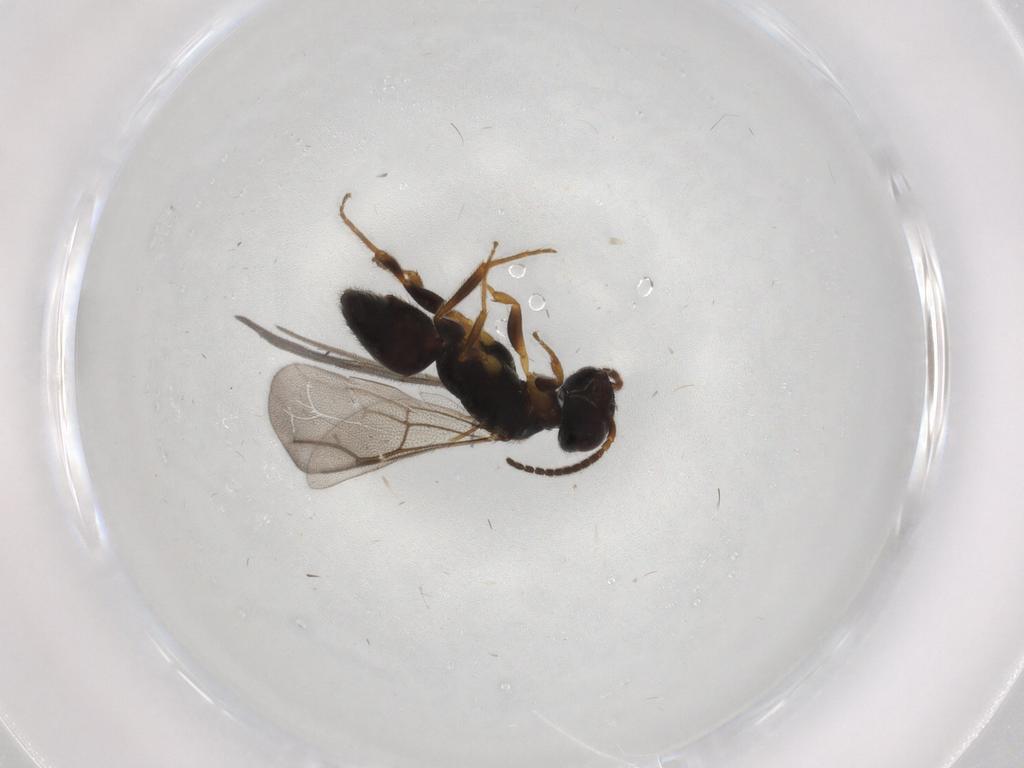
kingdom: Animalia
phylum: Arthropoda
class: Insecta
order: Hymenoptera
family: Bethylidae
